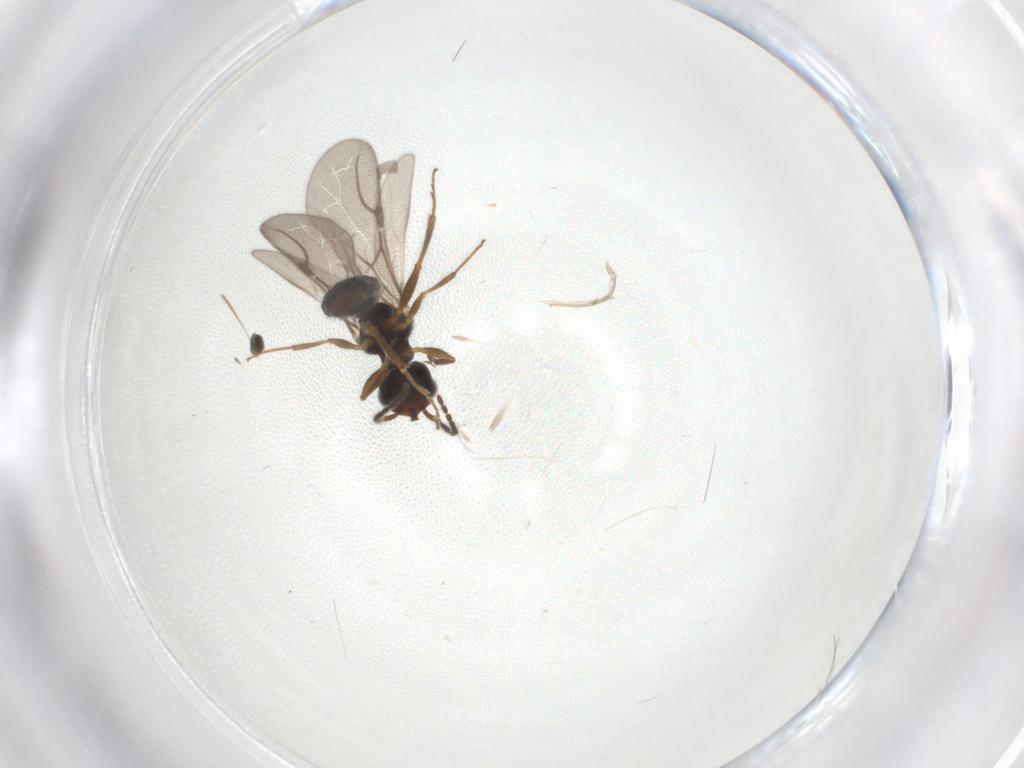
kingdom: Animalia
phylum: Arthropoda
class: Insecta
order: Hymenoptera
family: Bethylidae
